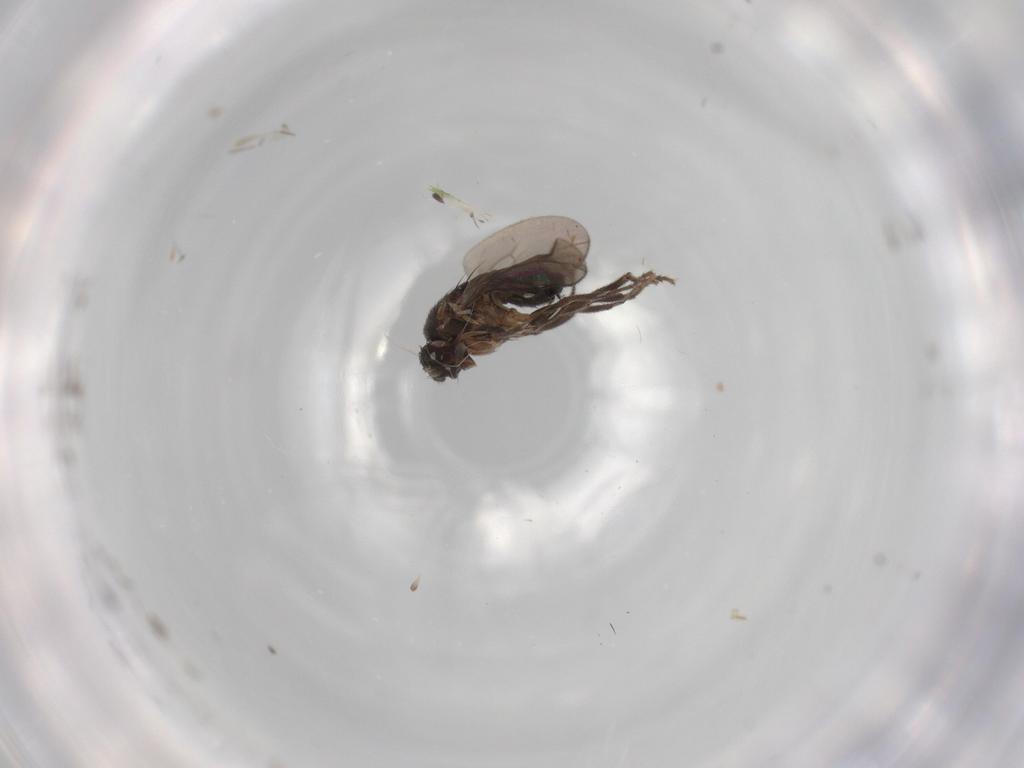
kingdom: Animalia
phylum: Arthropoda
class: Insecta
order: Diptera
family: Sphaeroceridae
